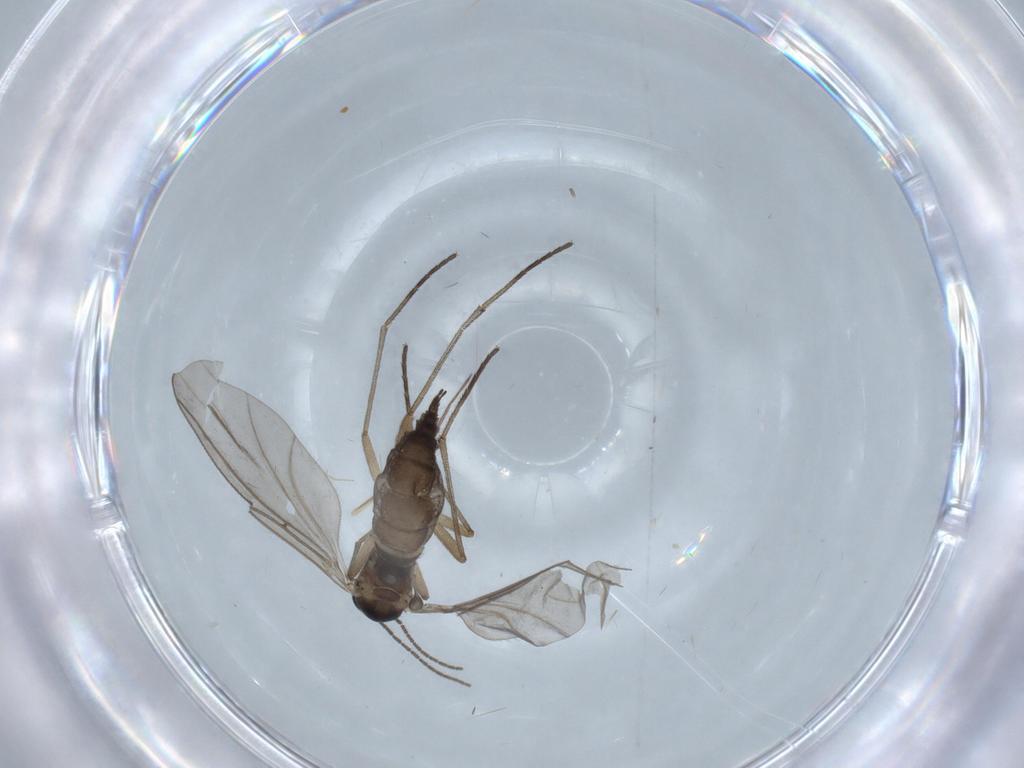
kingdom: Animalia
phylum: Arthropoda
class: Insecta
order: Diptera
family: Sciaridae
